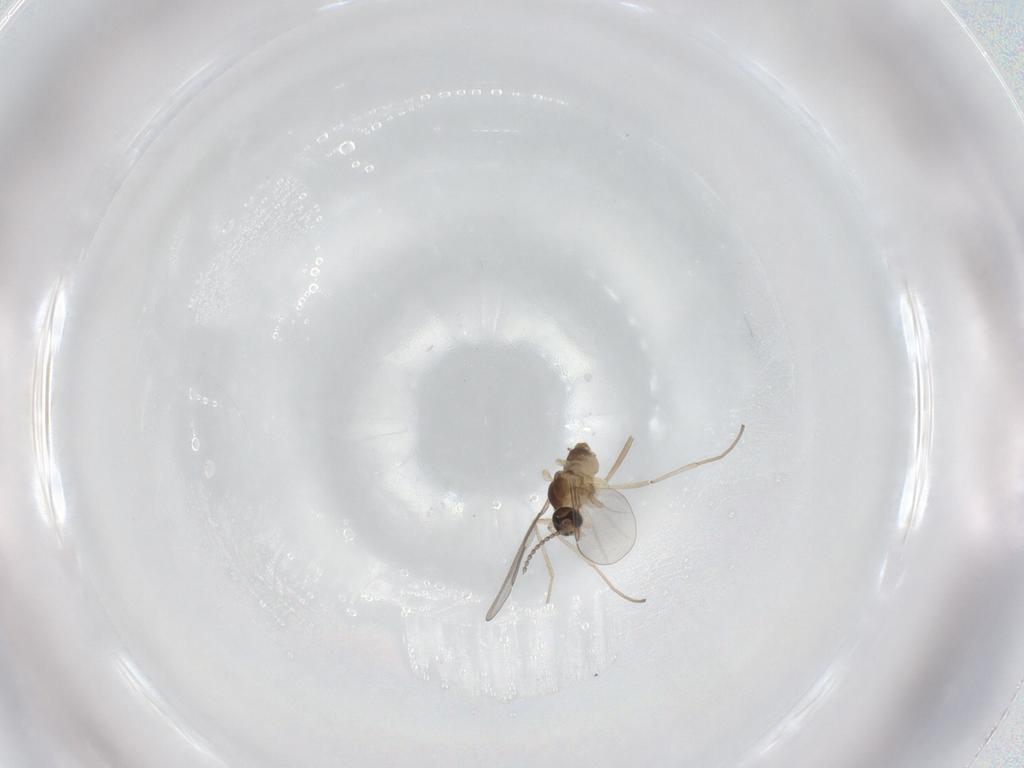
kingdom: Animalia
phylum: Arthropoda
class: Insecta
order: Diptera
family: Cecidomyiidae
